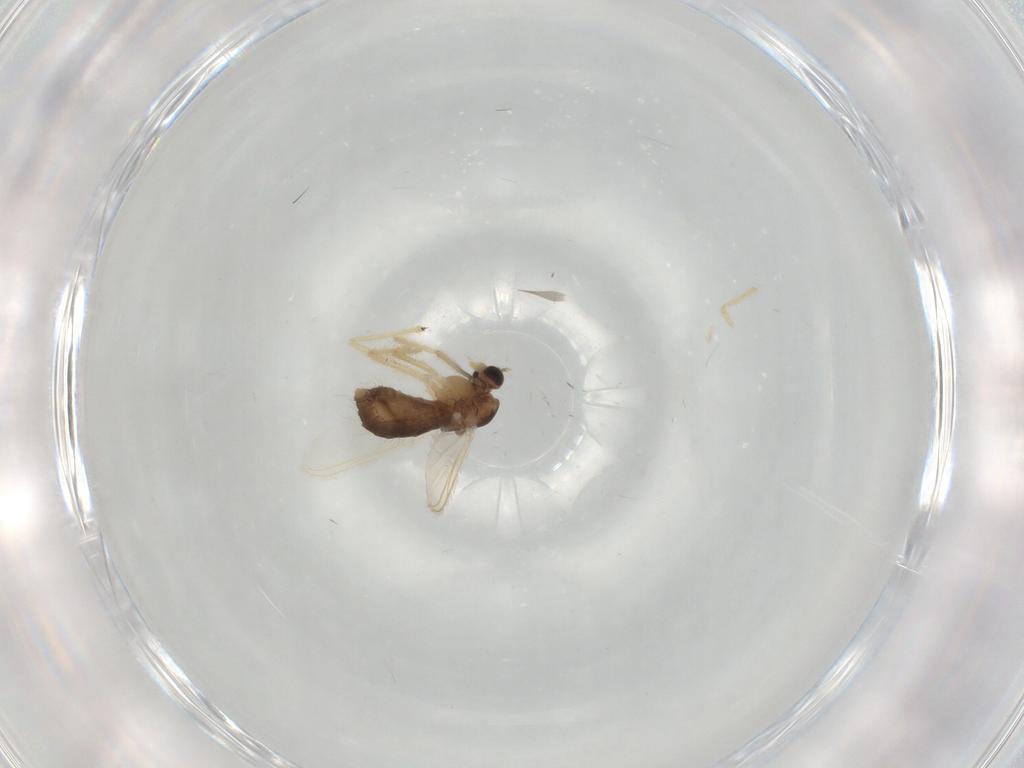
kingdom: Animalia
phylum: Arthropoda
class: Insecta
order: Diptera
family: Chironomidae
